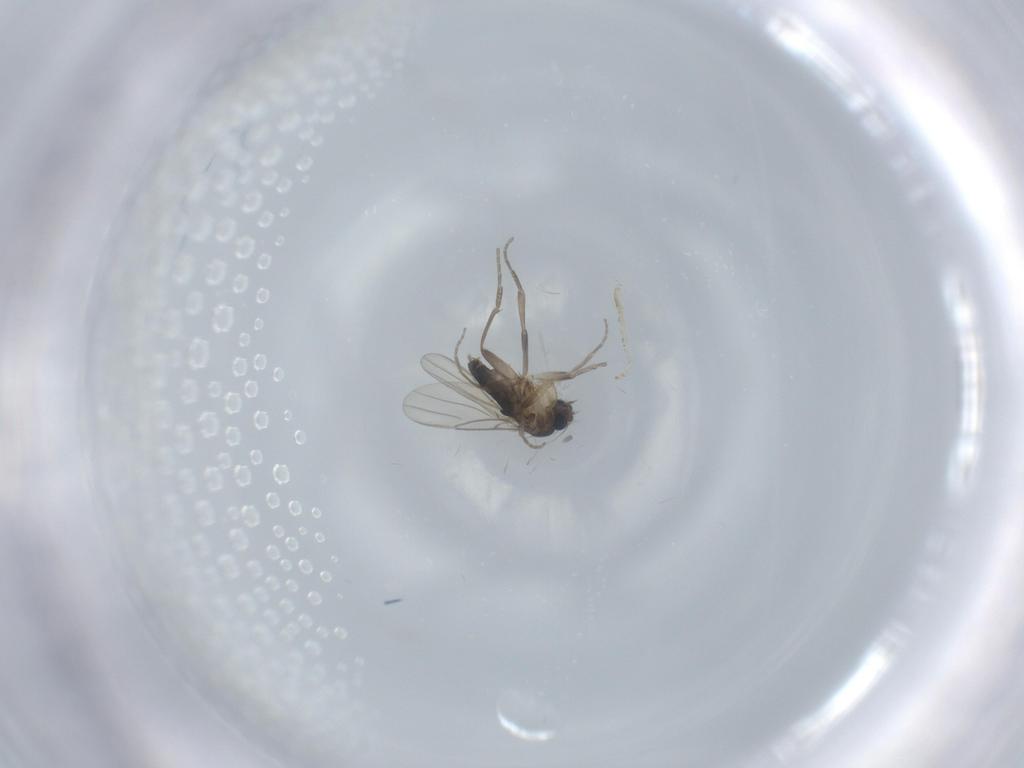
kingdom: Animalia
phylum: Arthropoda
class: Insecta
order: Diptera
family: Phoridae
